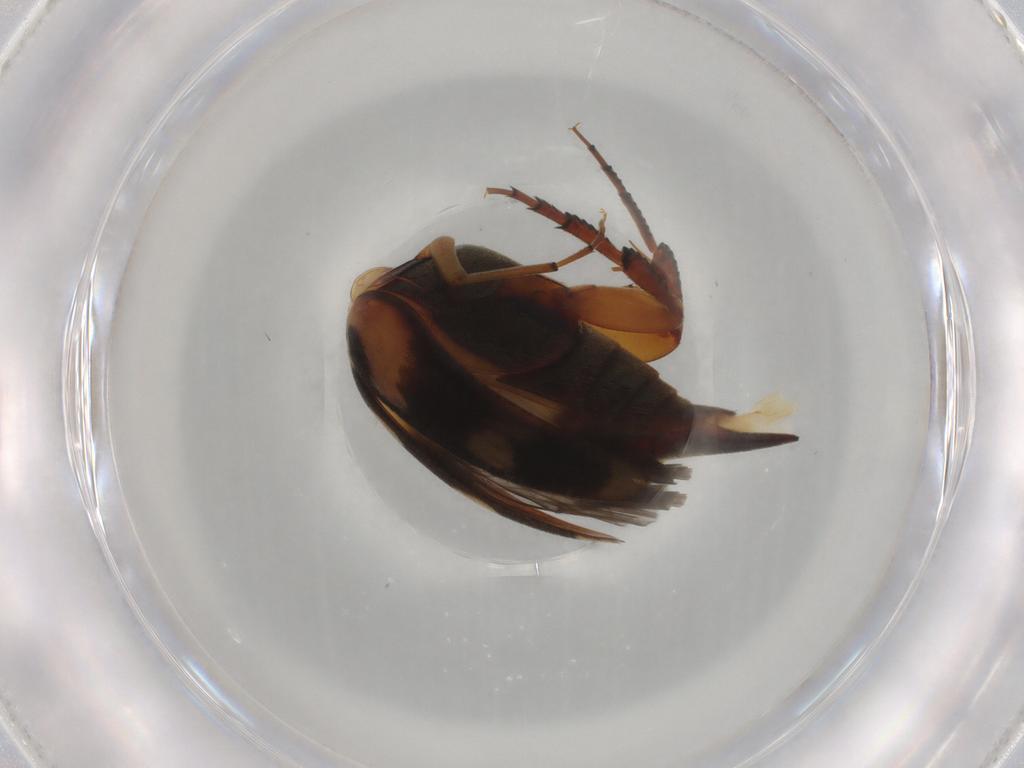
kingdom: Animalia
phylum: Arthropoda
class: Insecta
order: Coleoptera
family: Mordellidae
